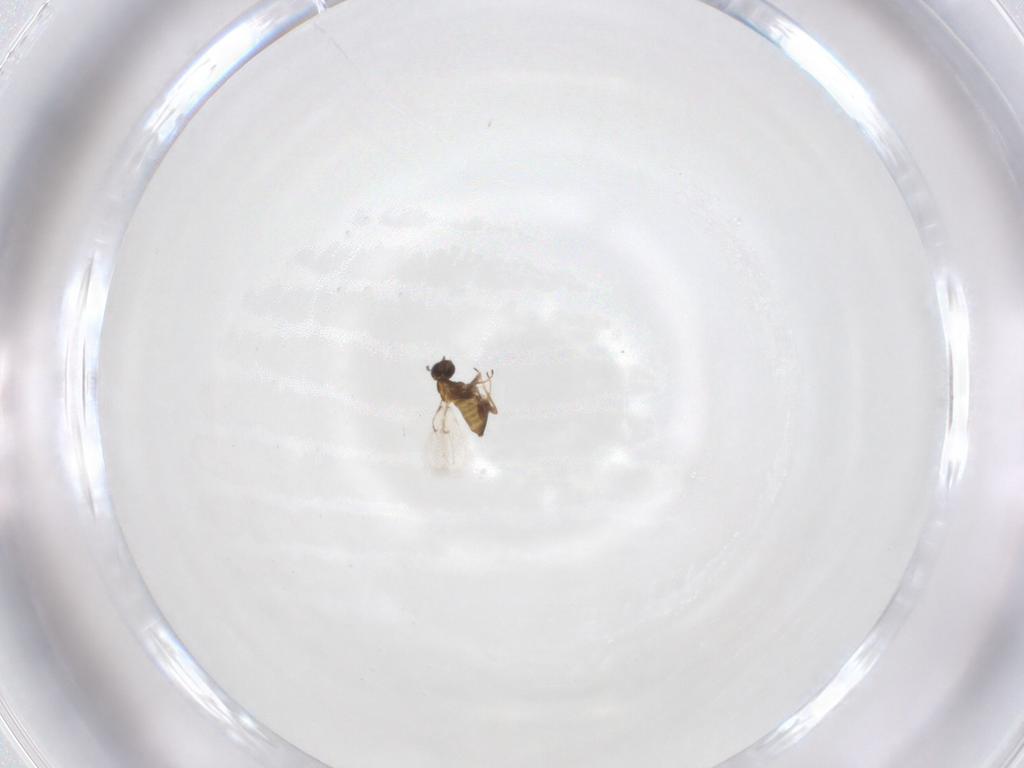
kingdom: Animalia
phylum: Arthropoda
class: Insecta
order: Hymenoptera
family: Trichogrammatidae
